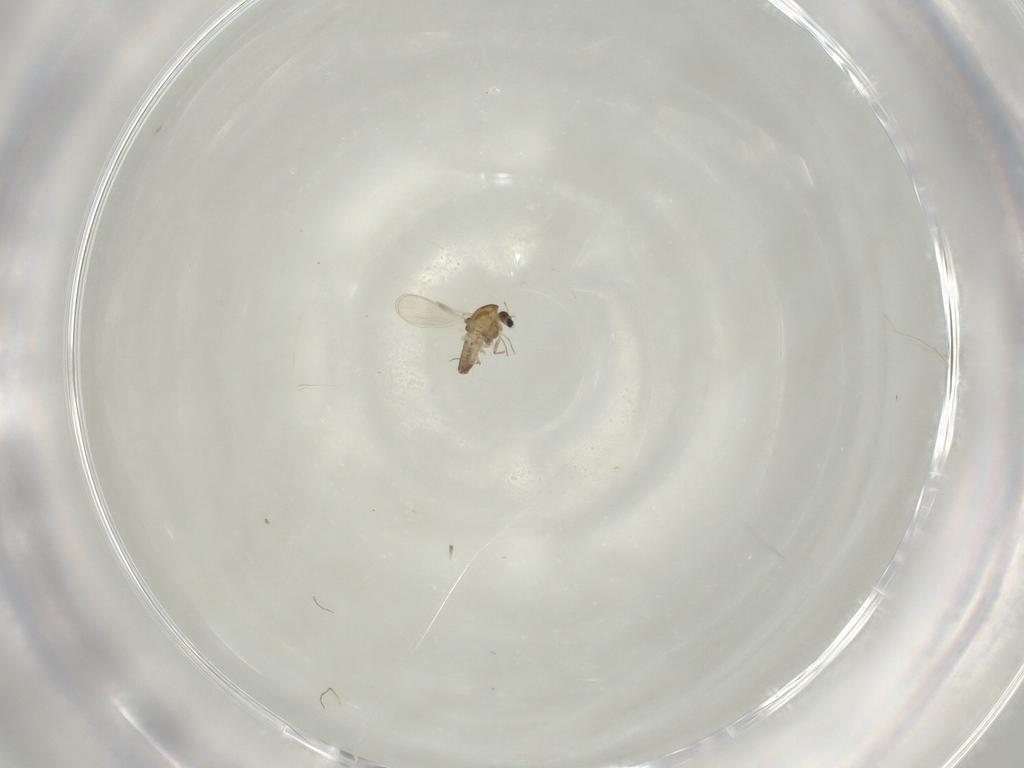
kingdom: Animalia
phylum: Arthropoda
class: Insecta
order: Diptera
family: Chironomidae
